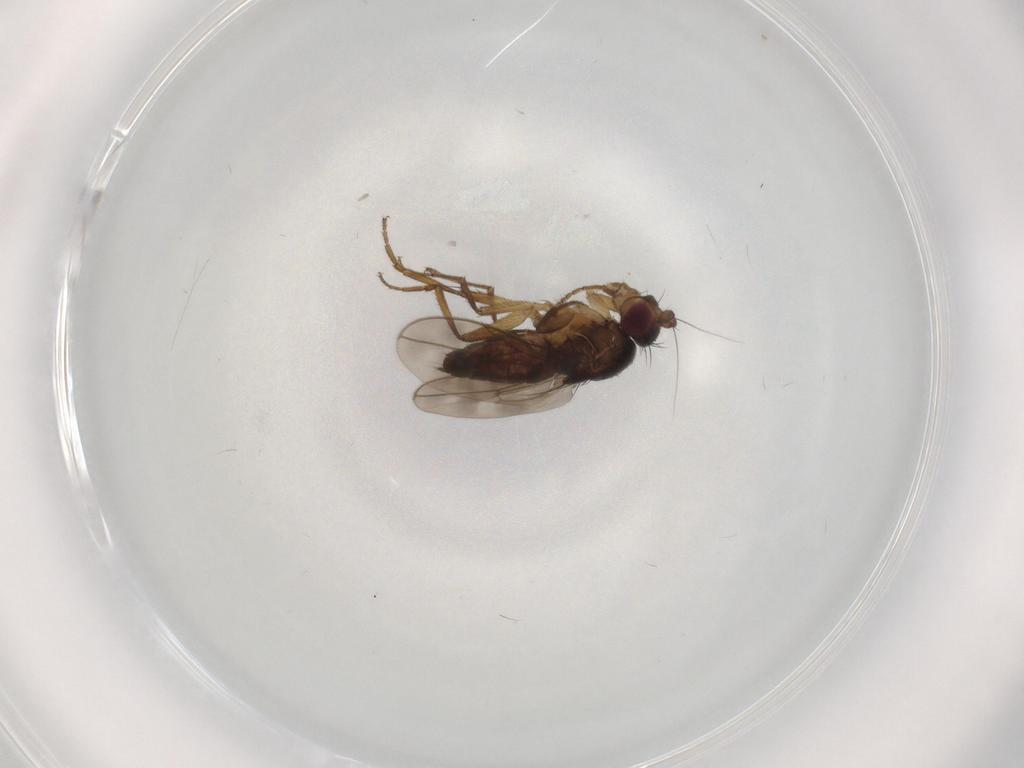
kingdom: Animalia
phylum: Arthropoda
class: Insecta
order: Diptera
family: Sphaeroceridae
